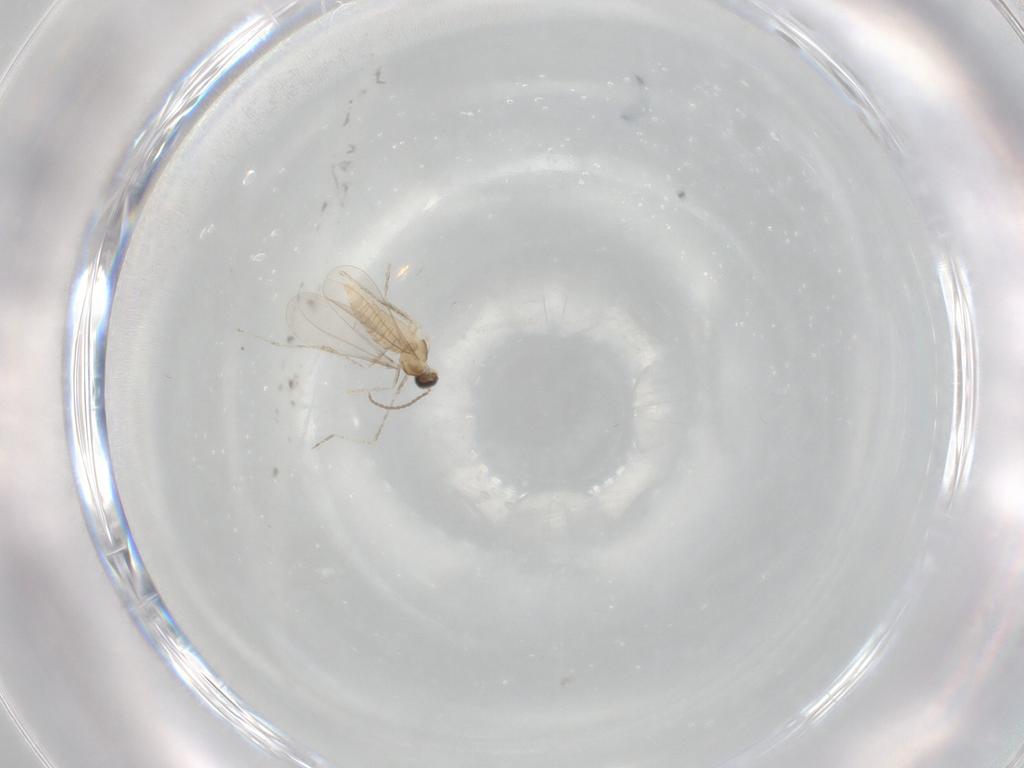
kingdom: Animalia
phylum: Arthropoda
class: Insecta
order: Diptera
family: Cecidomyiidae
